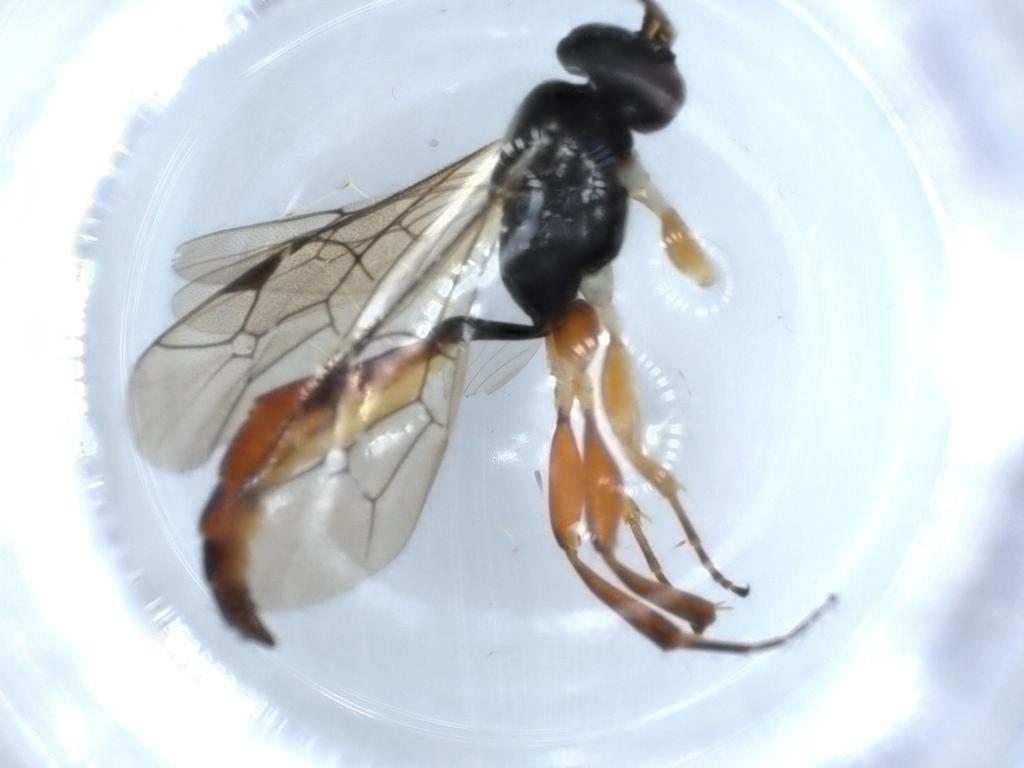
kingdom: Animalia
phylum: Arthropoda
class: Insecta
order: Hymenoptera
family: Ichneumonidae
